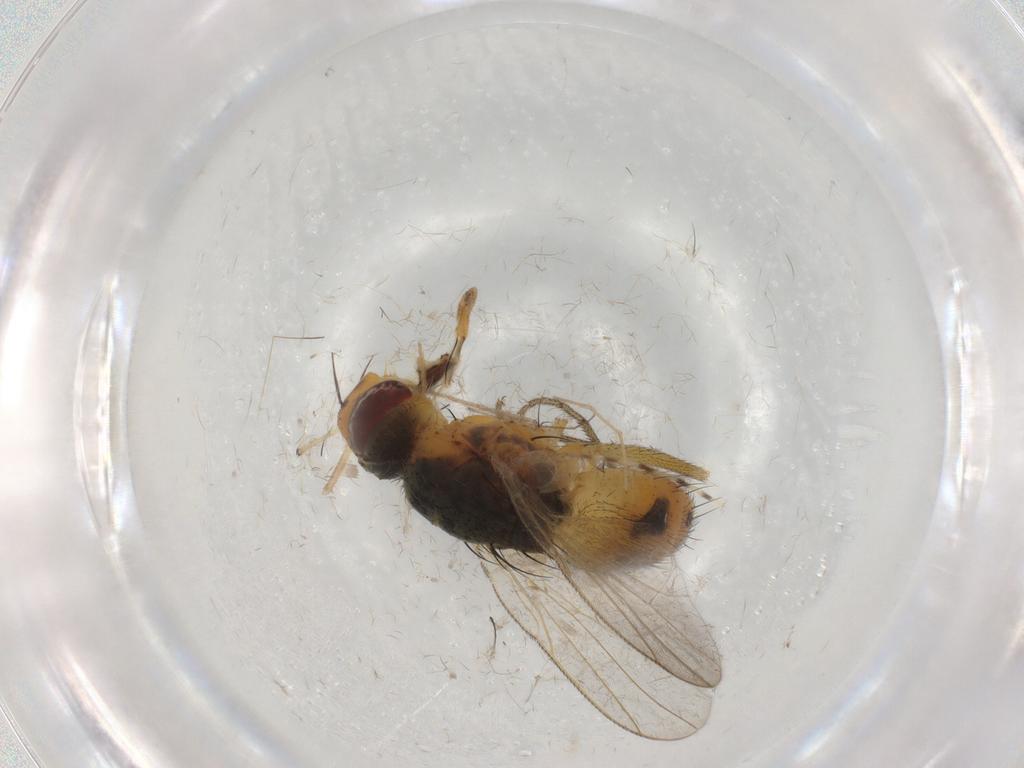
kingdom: Animalia
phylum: Arthropoda
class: Insecta
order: Diptera
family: Muscidae
